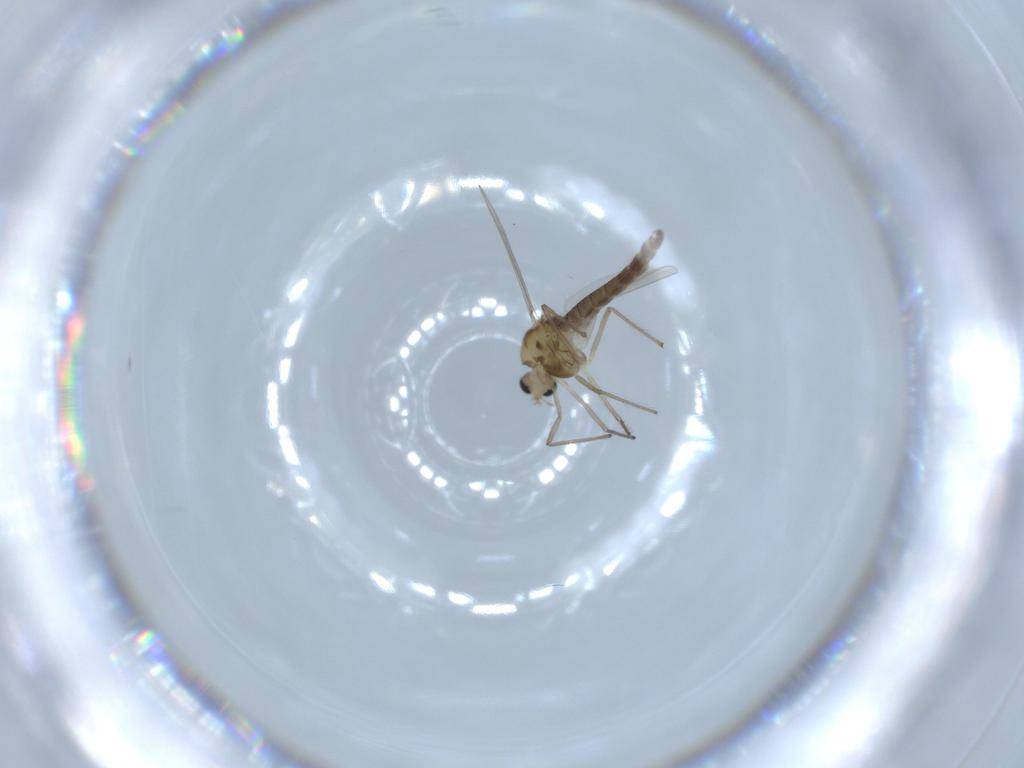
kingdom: Animalia
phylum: Arthropoda
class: Insecta
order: Diptera
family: Chironomidae
